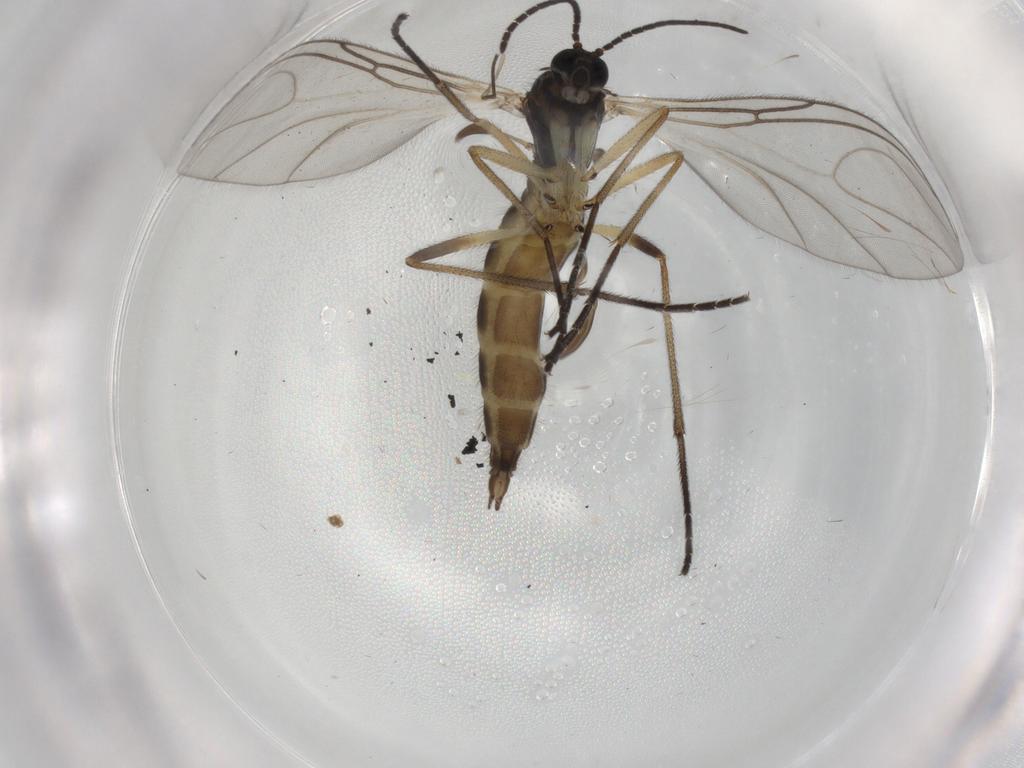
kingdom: Animalia
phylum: Arthropoda
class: Insecta
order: Diptera
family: Sciaridae
